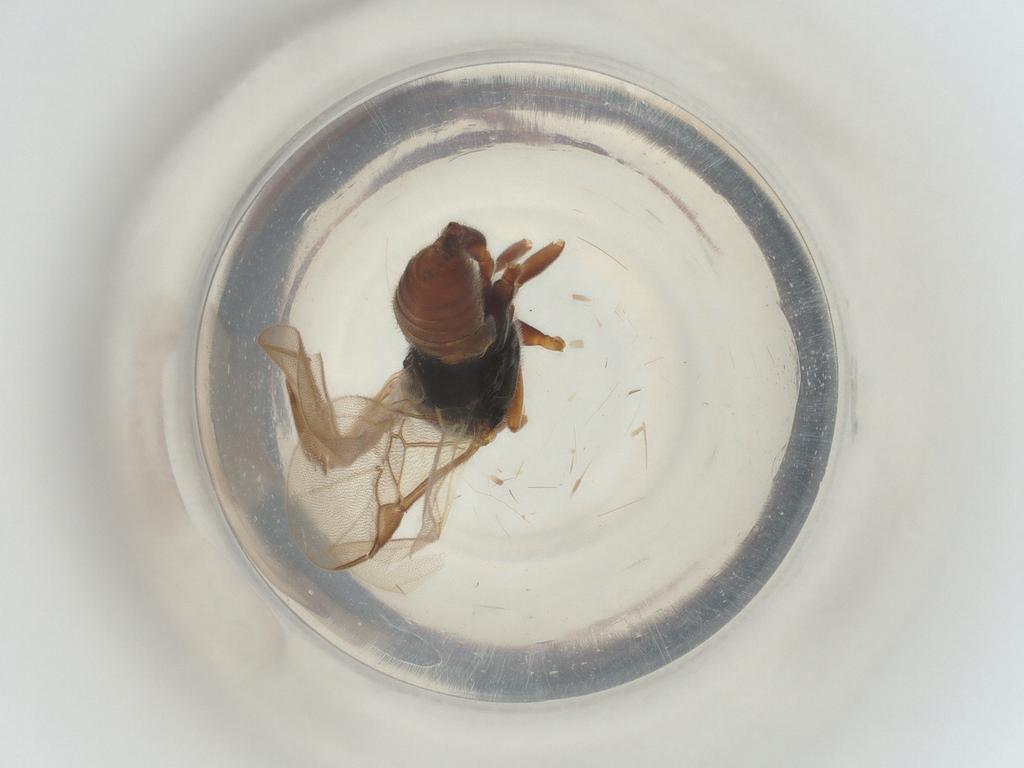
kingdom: Animalia
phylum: Arthropoda
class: Insecta
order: Hymenoptera
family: Braconidae
